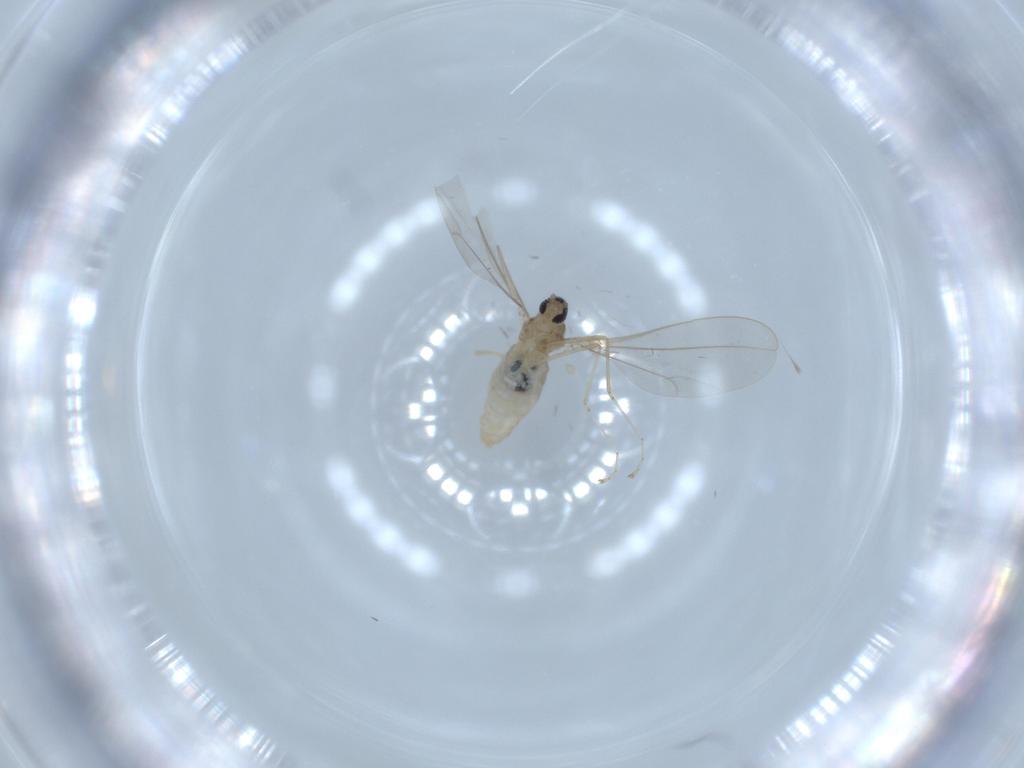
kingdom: Animalia
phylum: Arthropoda
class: Insecta
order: Diptera
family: Cecidomyiidae
